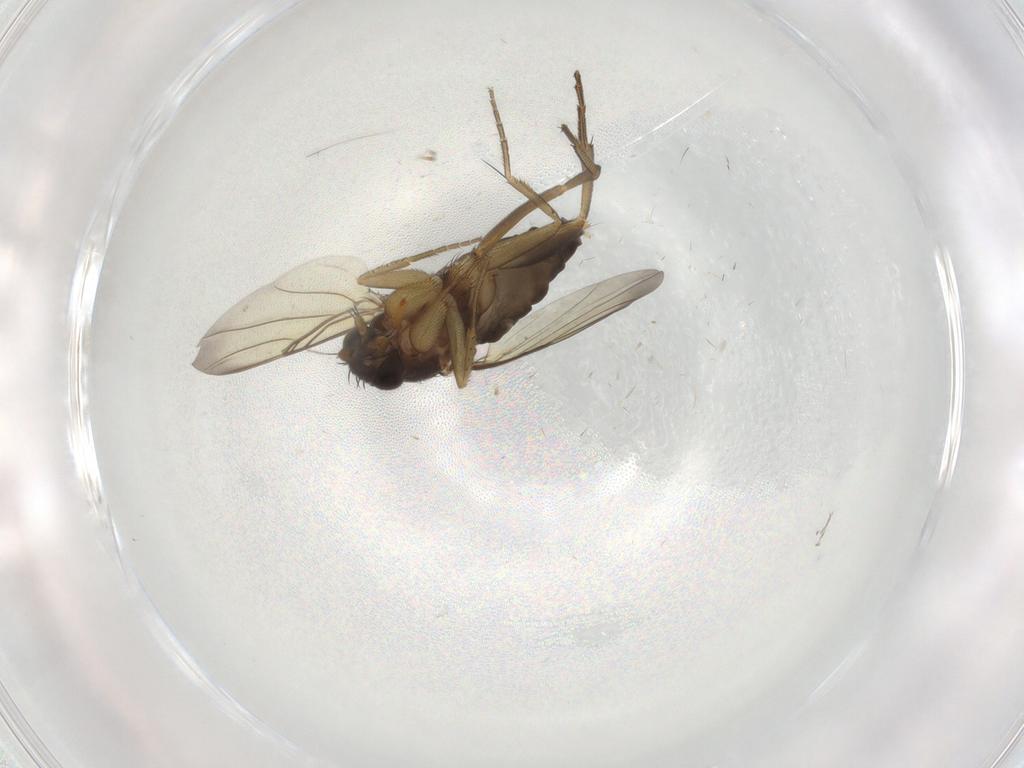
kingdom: Animalia
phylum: Arthropoda
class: Insecta
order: Diptera
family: Phoridae
